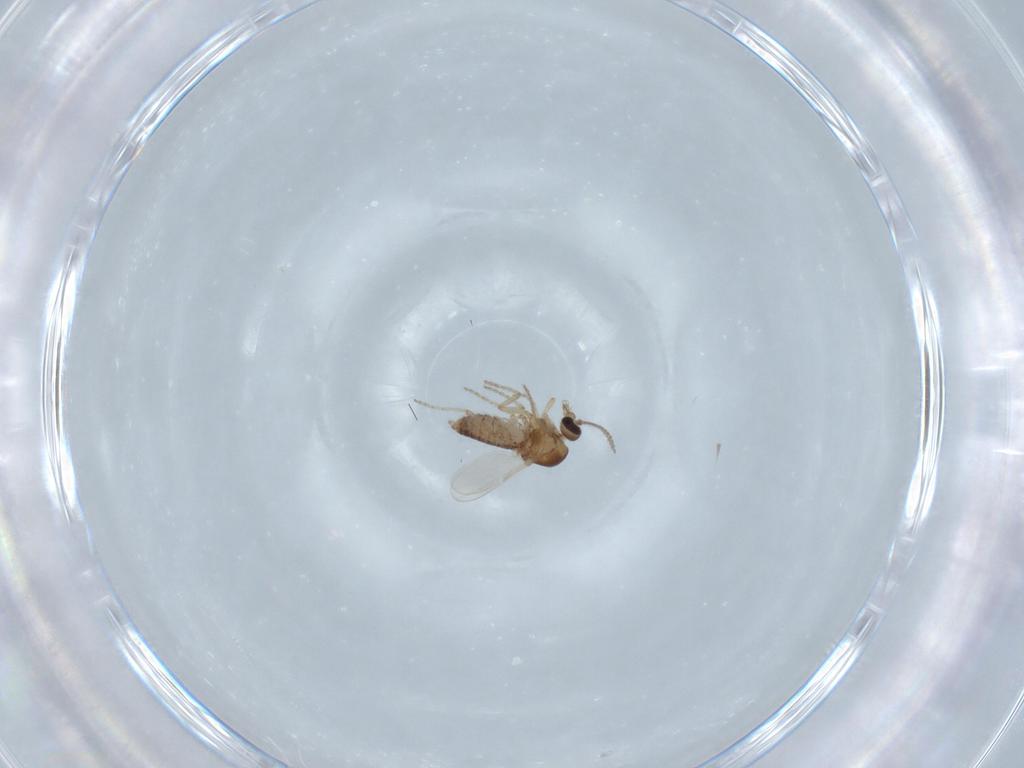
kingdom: Animalia
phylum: Arthropoda
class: Insecta
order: Diptera
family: Ceratopogonidae
